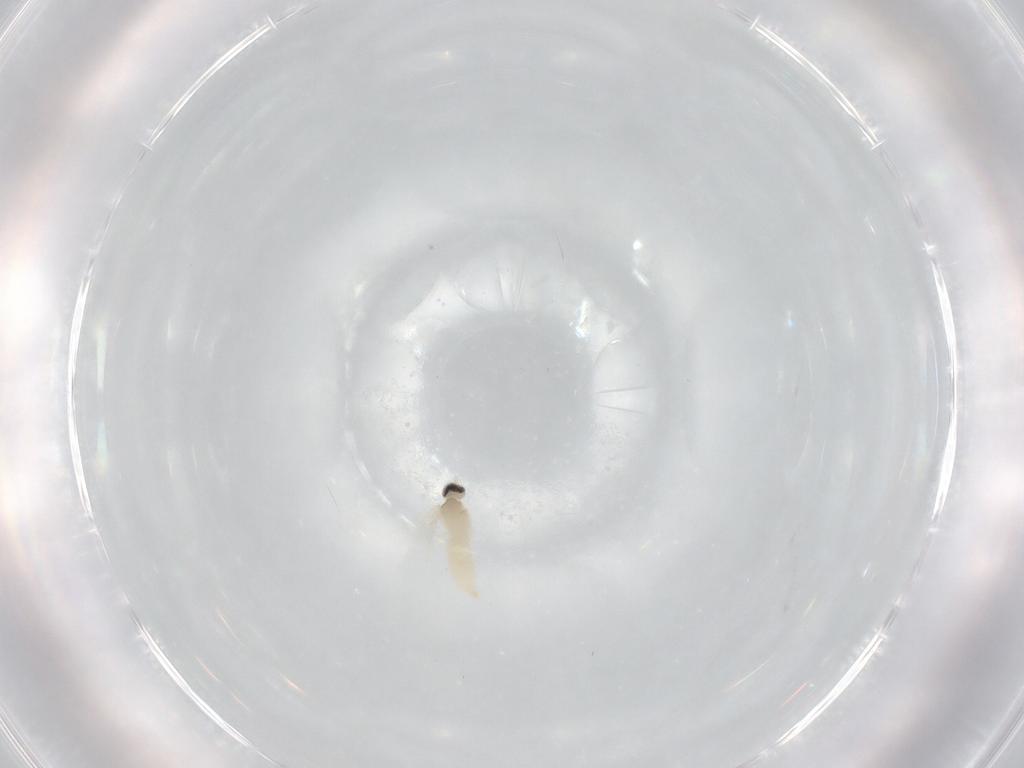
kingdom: Animalia
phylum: Arthropoda
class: Insecta
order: Diptera
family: Cecidomyiidae
